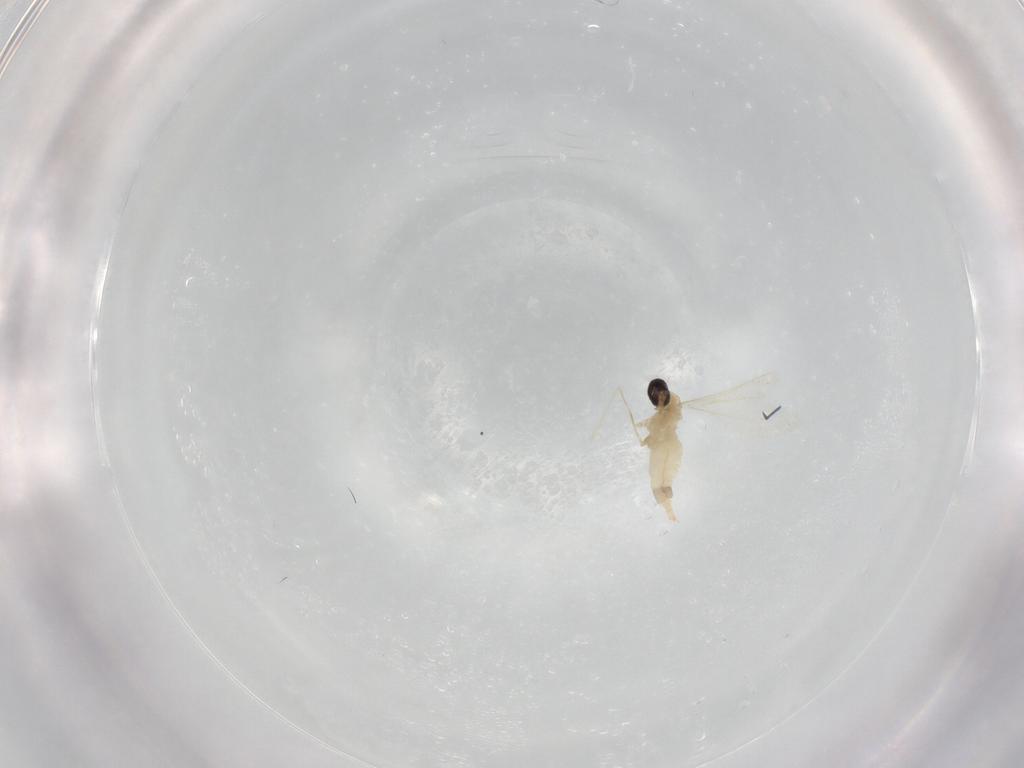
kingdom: Animalia
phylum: Arthropoda
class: Insecta
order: Diptera
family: Cecidomyiidae
